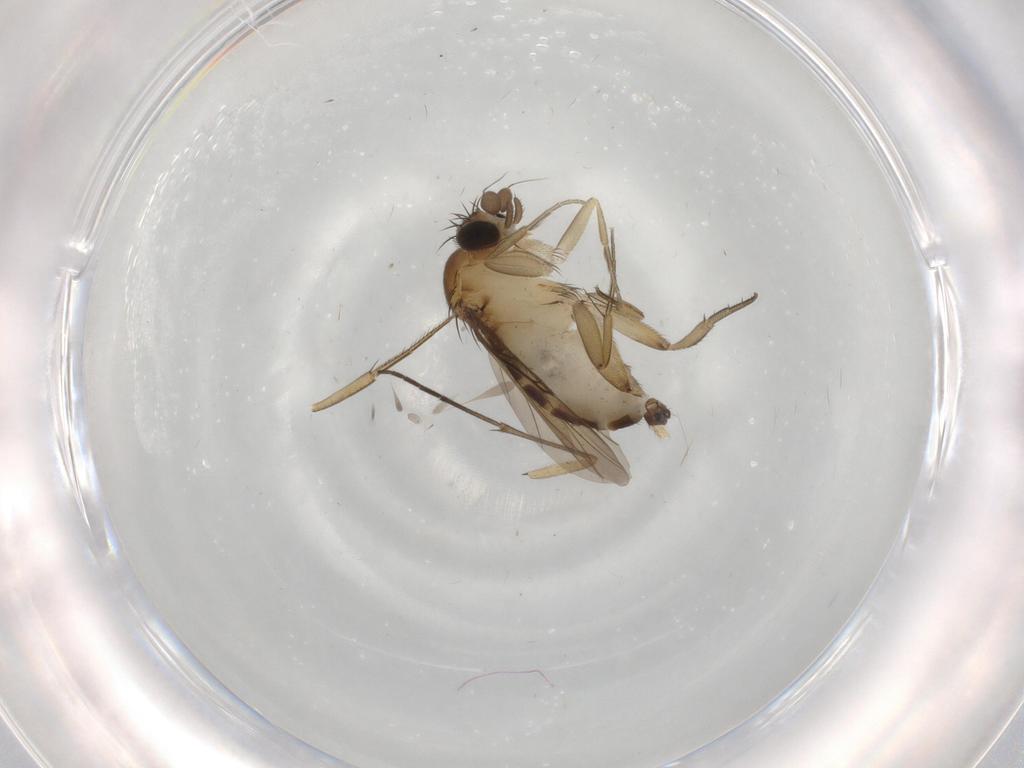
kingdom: Animalia
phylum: Arthropoda
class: Insecta
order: Diptera
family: Phoridae
